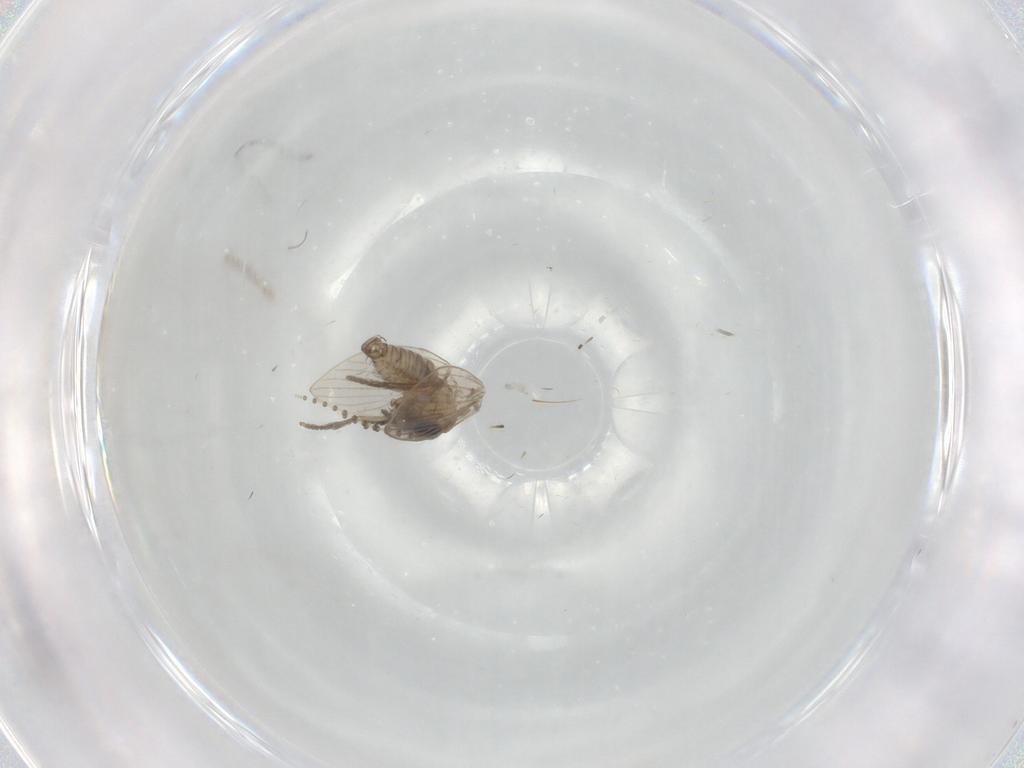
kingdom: Animalia
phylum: Arthropoda
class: Insecta
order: Diptera
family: Psychodidae
